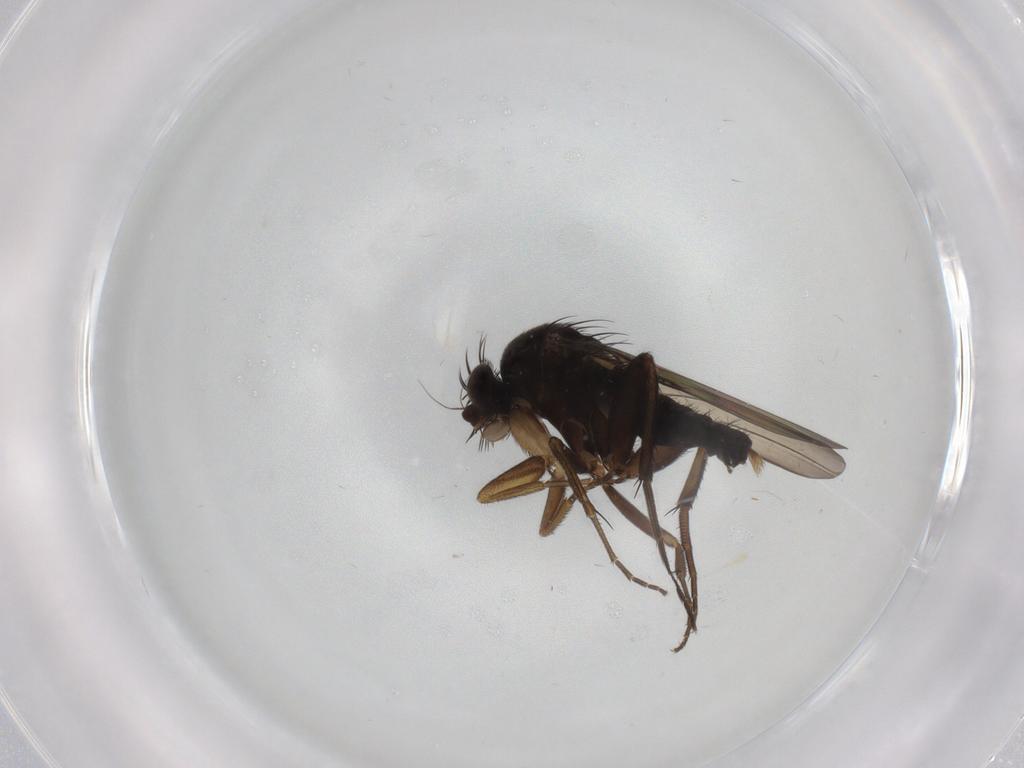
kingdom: Animalia
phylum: Arthropoda
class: Insecta
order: Diptera
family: Phoridae
